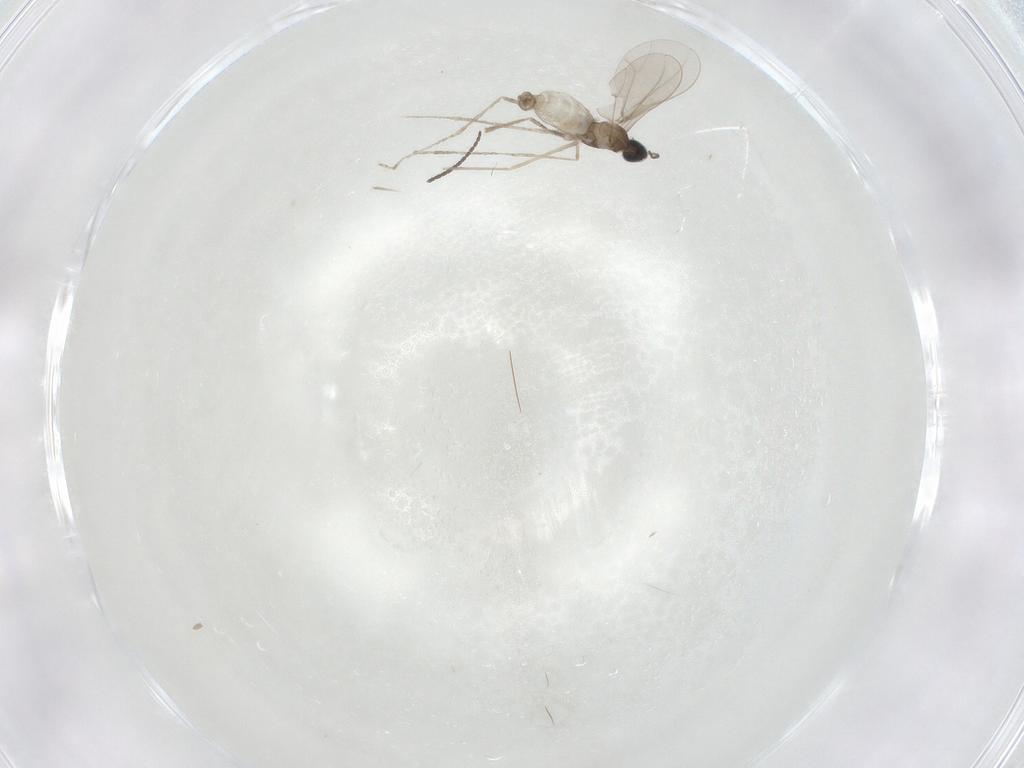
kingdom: Animalia
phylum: Arthropoda
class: Insecta
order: Diptera
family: Cecidomyiidae
